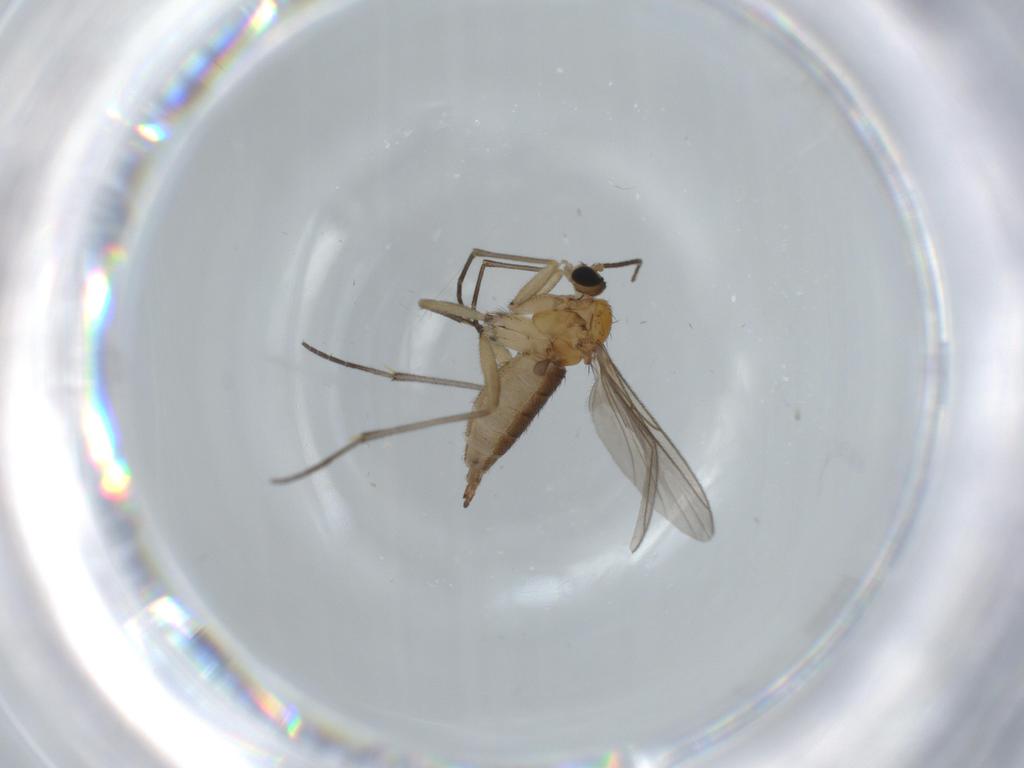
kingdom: Animalia
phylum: Arthropoda
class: Insecta
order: Diptera
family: Sciaridae
